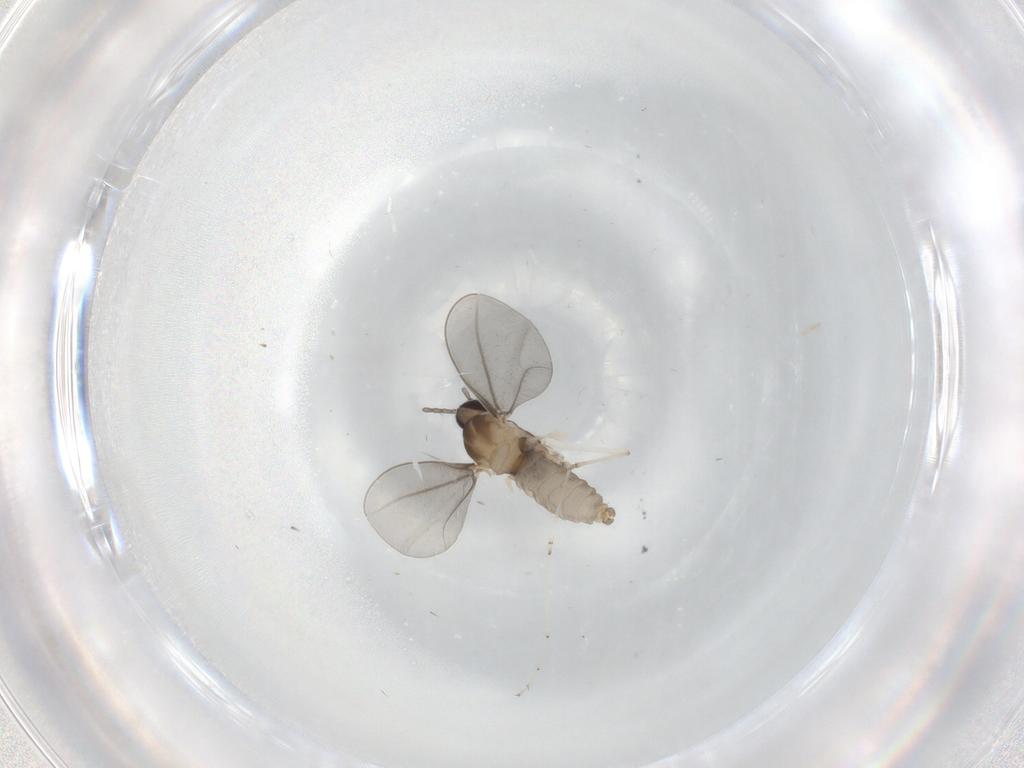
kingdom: Animalia
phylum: Arthropoda
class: Insecta
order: Diptera
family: Cecidomyiidae
